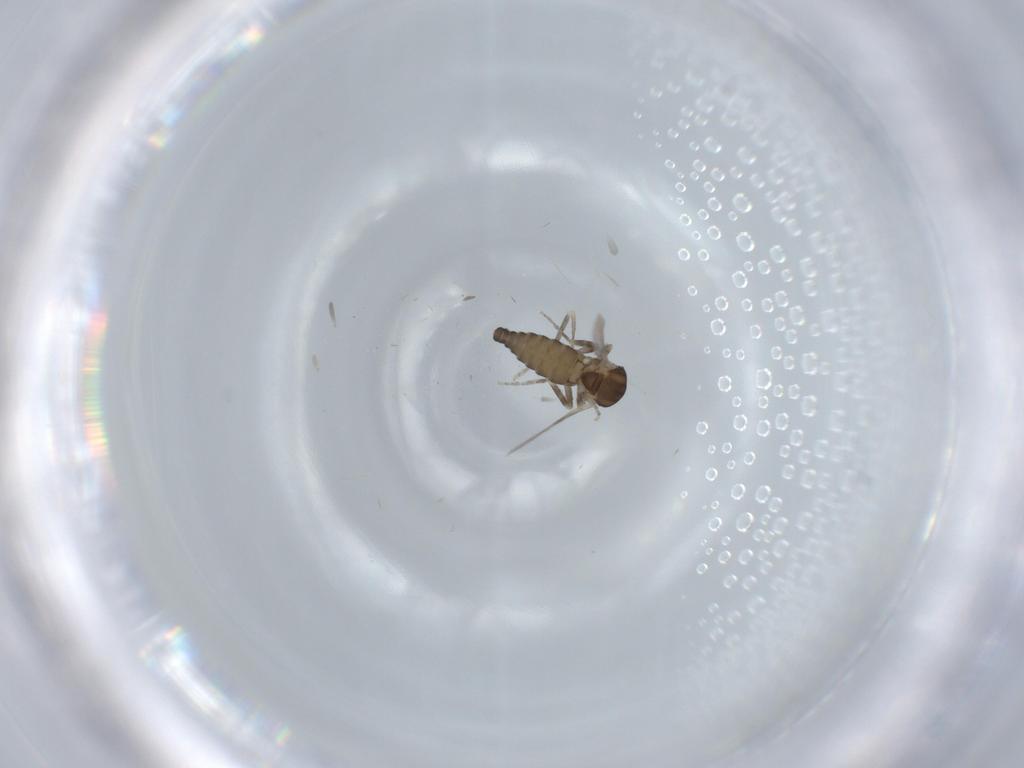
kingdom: Animalia
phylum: Arthropoda
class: Insecta
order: Diptera
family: Ceratopogonidae
